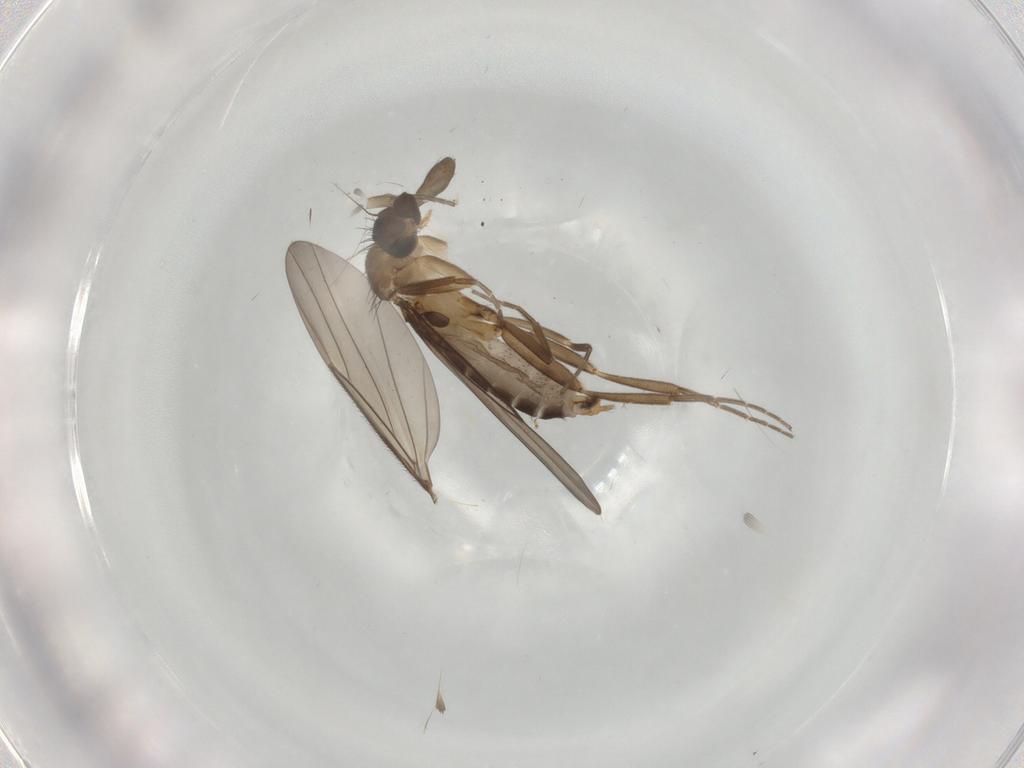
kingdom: Animalia
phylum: Arthropoda
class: Insecta
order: Diptera
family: Phoridae
